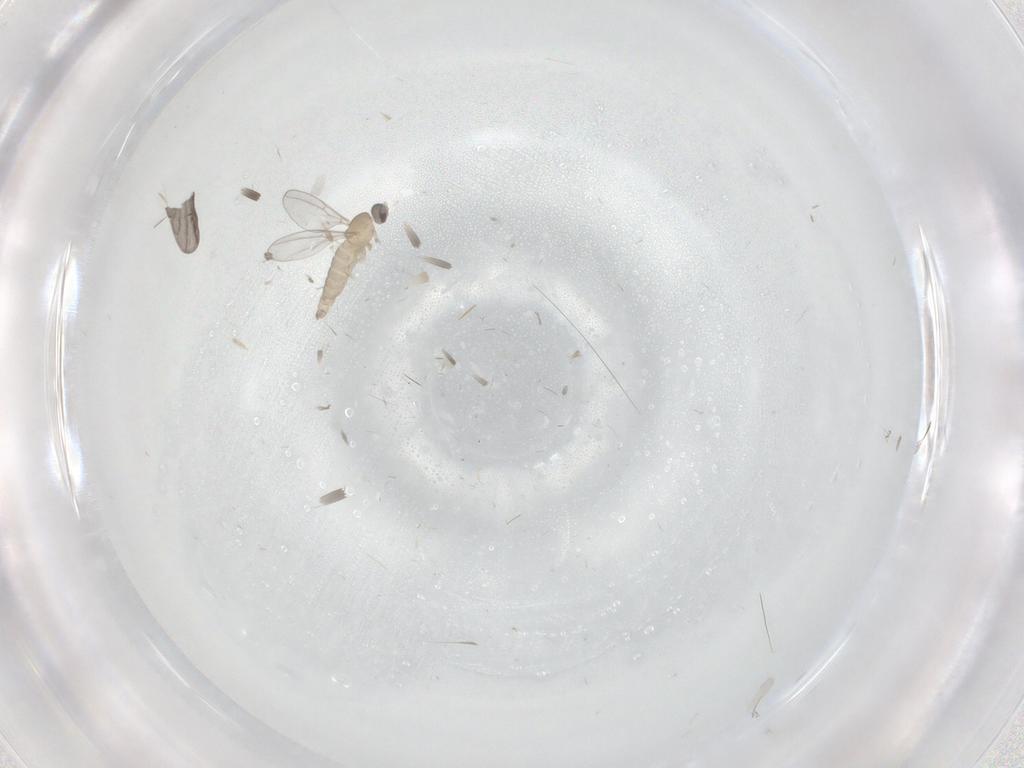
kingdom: Animalia
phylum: Arthropoda
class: Insecta
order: Diptera
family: Cecidomyiidae
